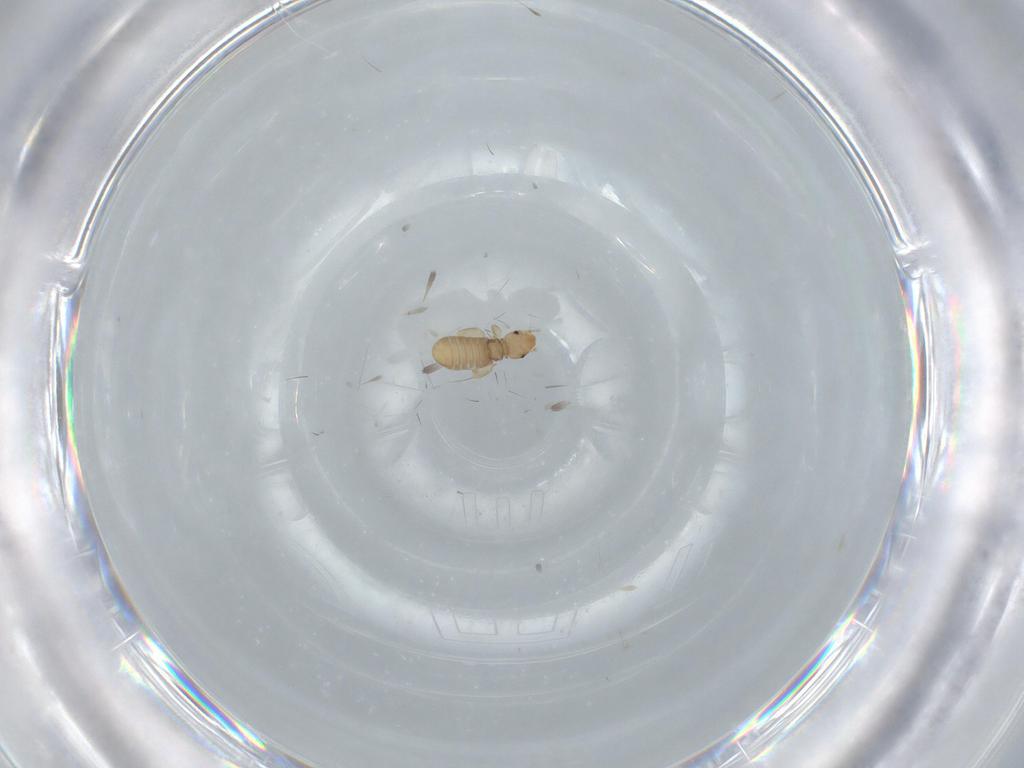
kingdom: Animalia
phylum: Arthropoda
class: Insecta
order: Psocodea
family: Liposcelididae
